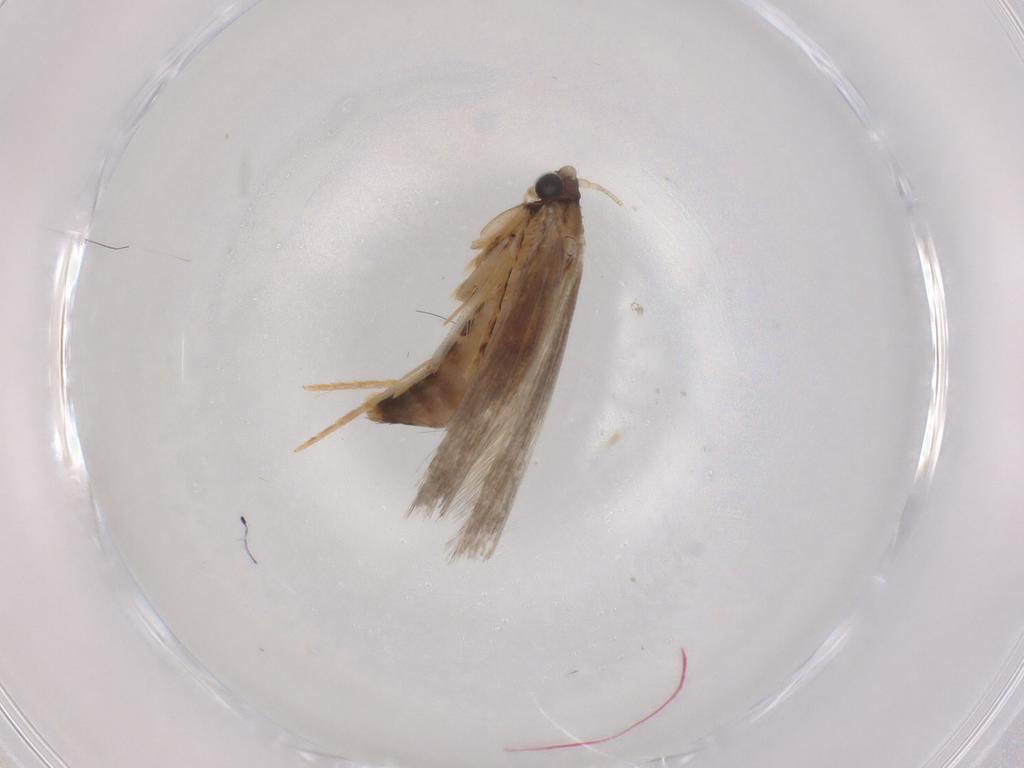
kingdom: Animalia
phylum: Arthropoda
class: Insecta
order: Lepidoptera
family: Tineidae
